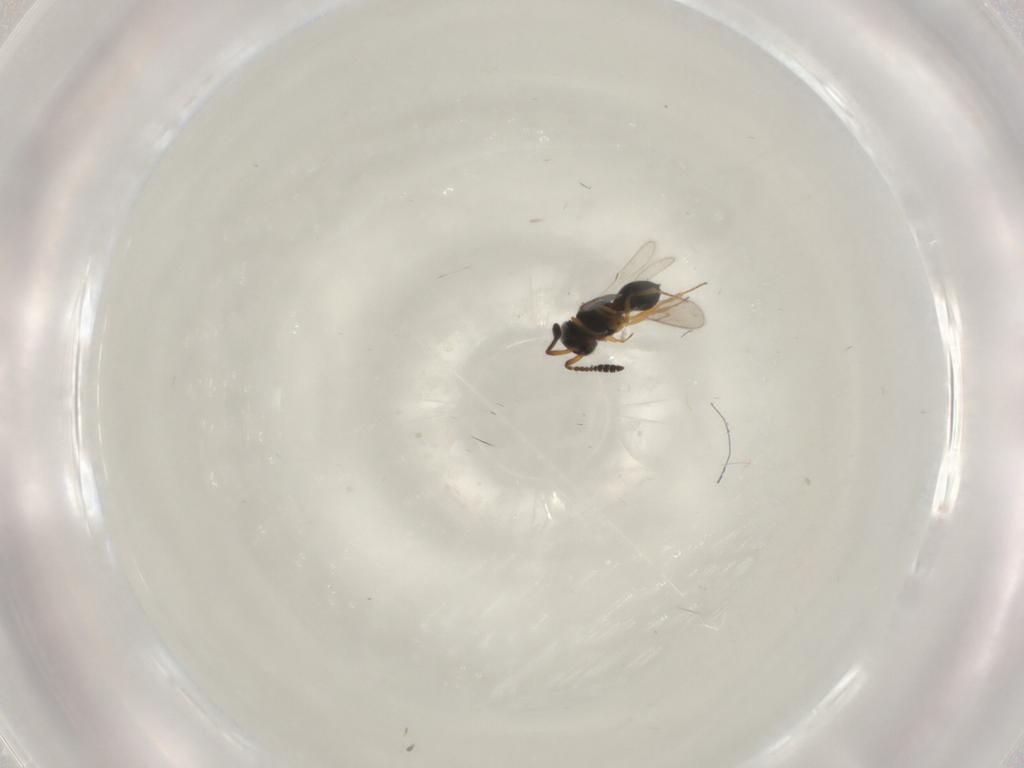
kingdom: Animalia
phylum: Arthropoda
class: Insecta
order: Hymenoptera
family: Scelionidae
